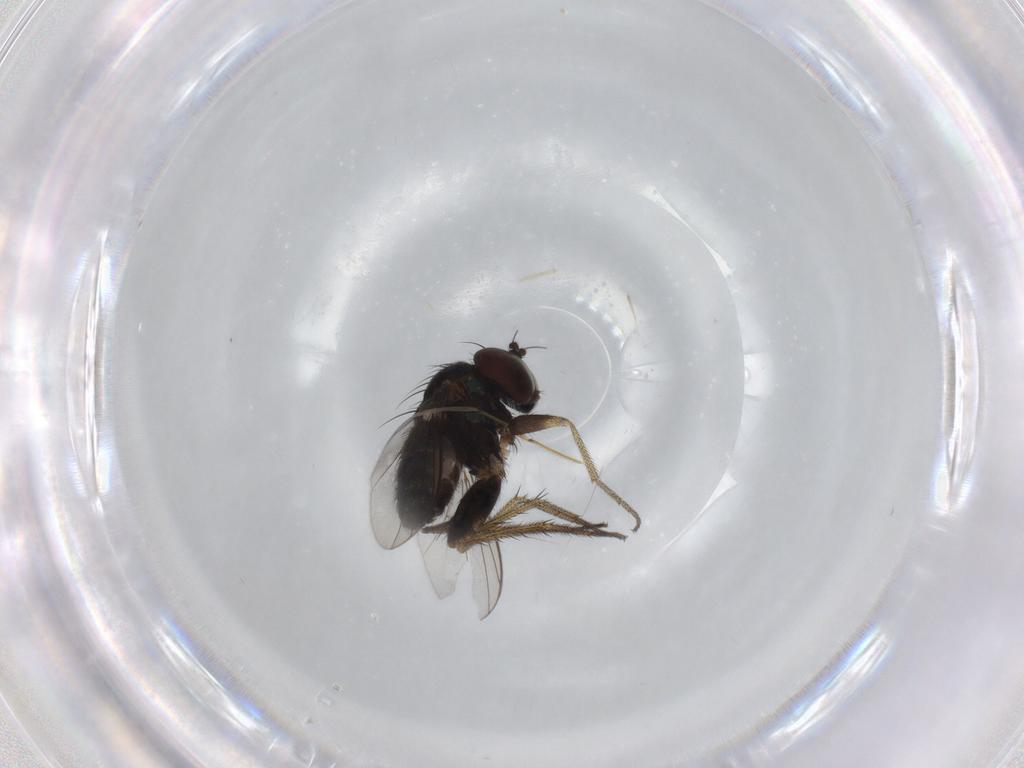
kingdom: Animalia
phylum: Arthropoda
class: Insecta
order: Diptera
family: Dolichopodidae
